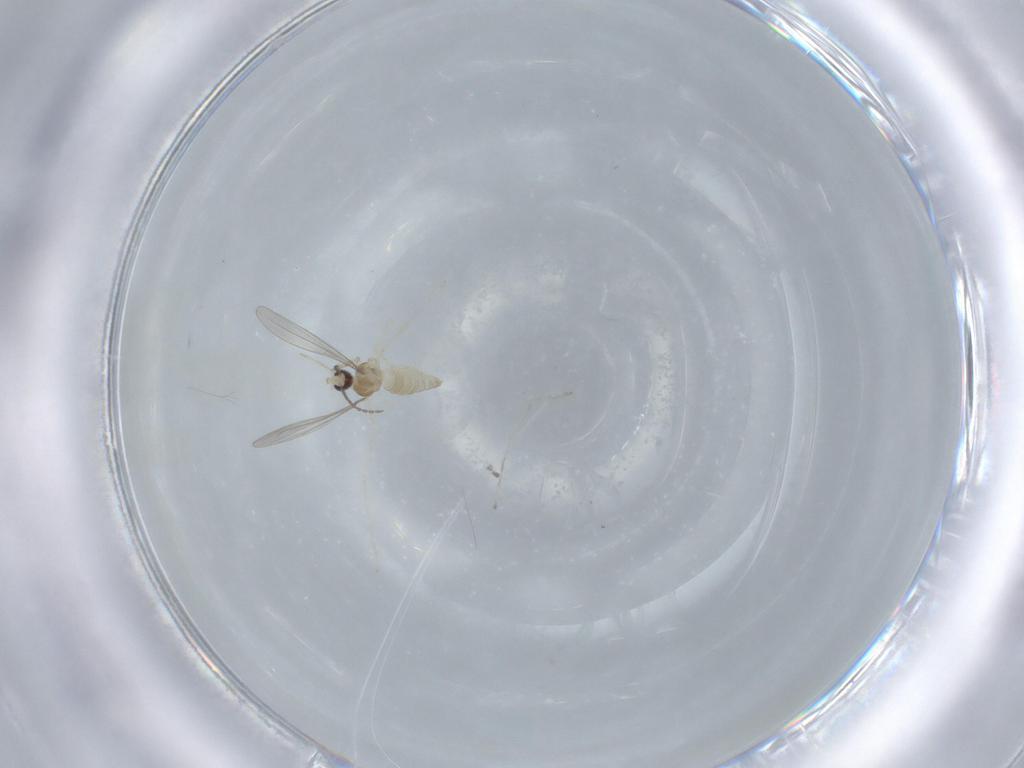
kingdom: Animalia
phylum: Arthropoda
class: Insecta
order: Diptera
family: Cecidomyiidae
